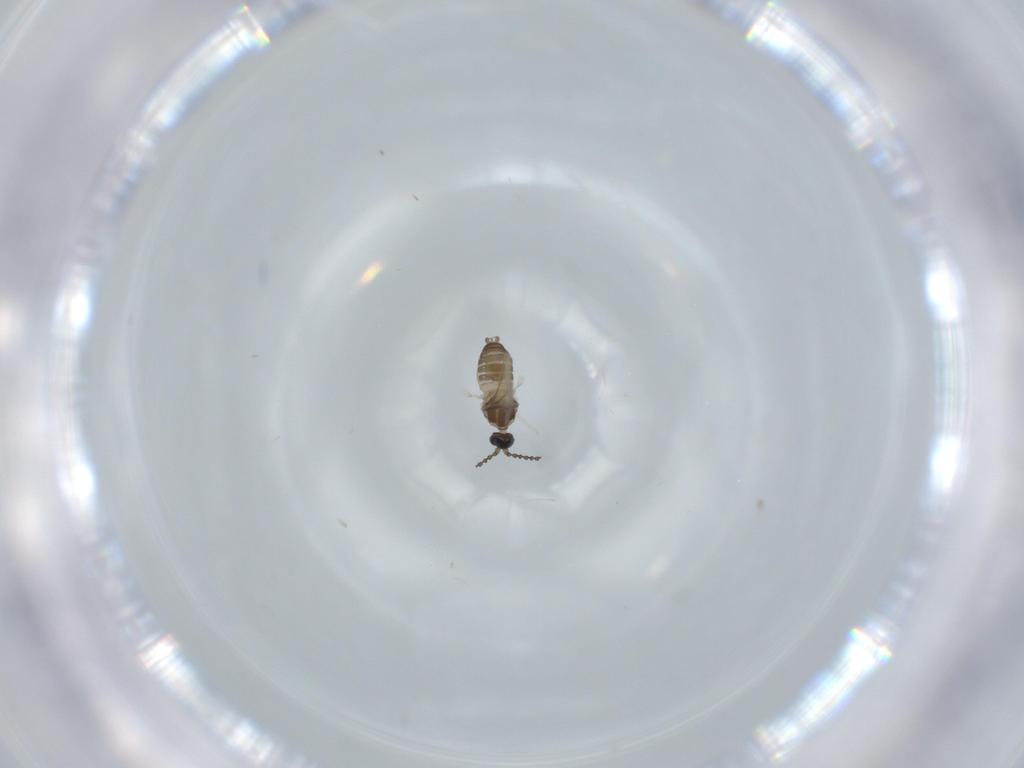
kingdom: Animalia
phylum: Arthropoda
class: Insecta
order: Diptera
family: Cecidomyiidae
